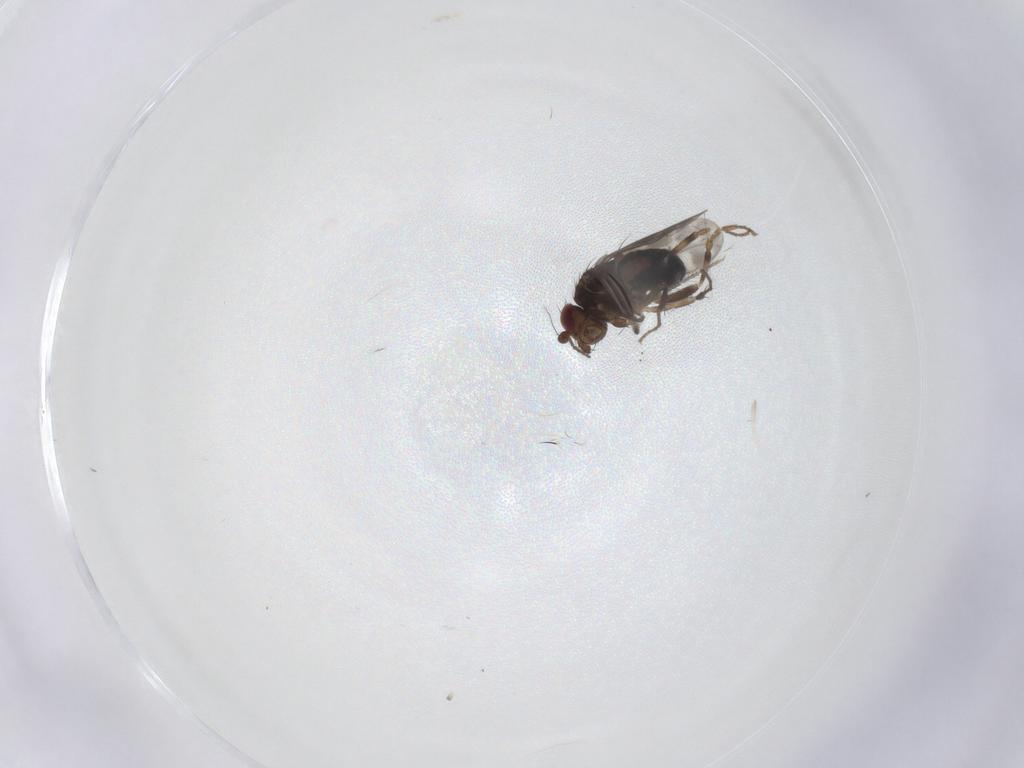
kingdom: Animalia
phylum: Arthropoda
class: Insecta
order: Diptera
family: Sphaeroceridae
